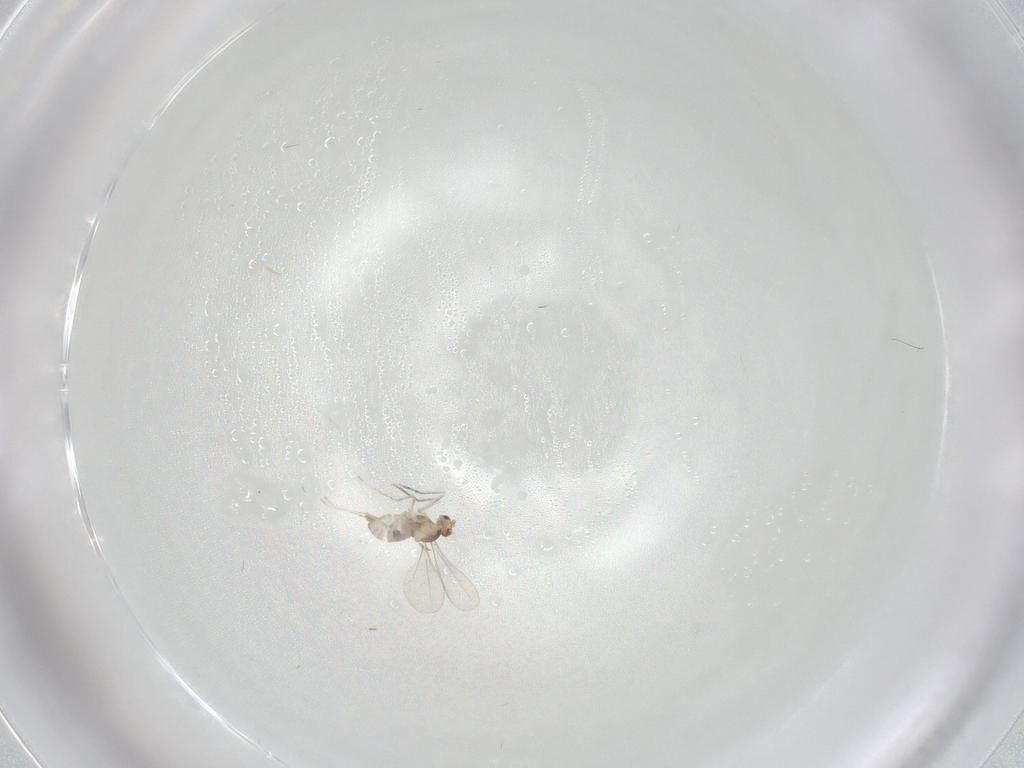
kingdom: Animalia
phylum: Arthropoda
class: Insecta
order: Diptera
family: Cecidomyiidae
